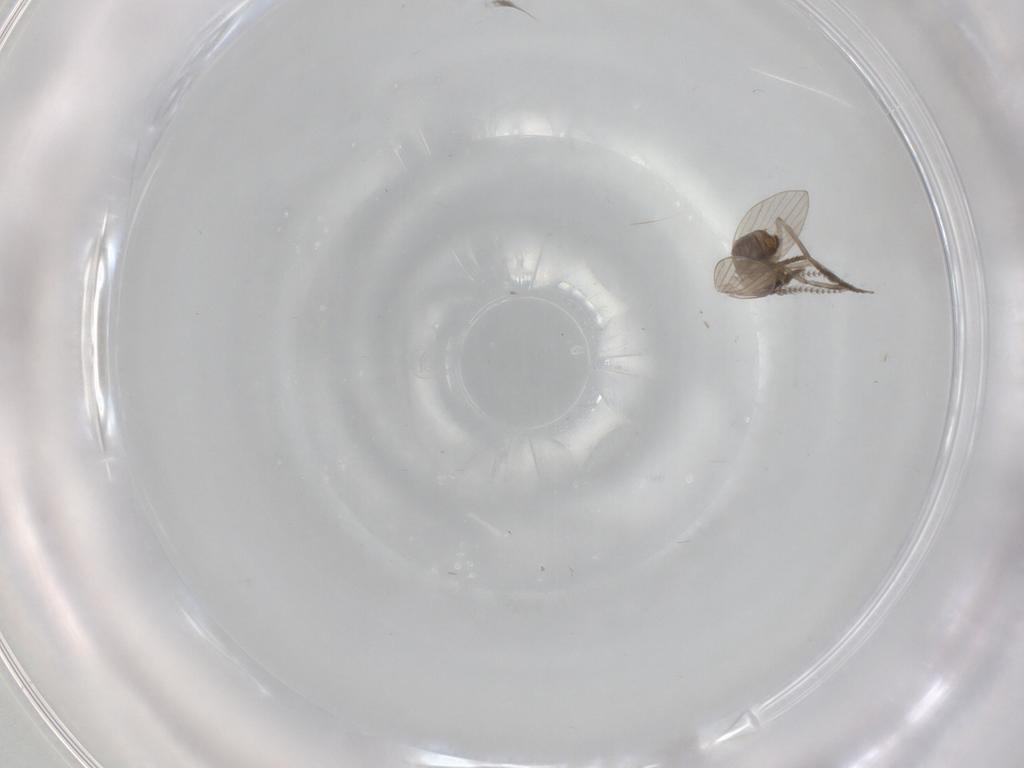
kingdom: Animalia
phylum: Arthropoda
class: Insecta
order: Diptera
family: Psychodidae
